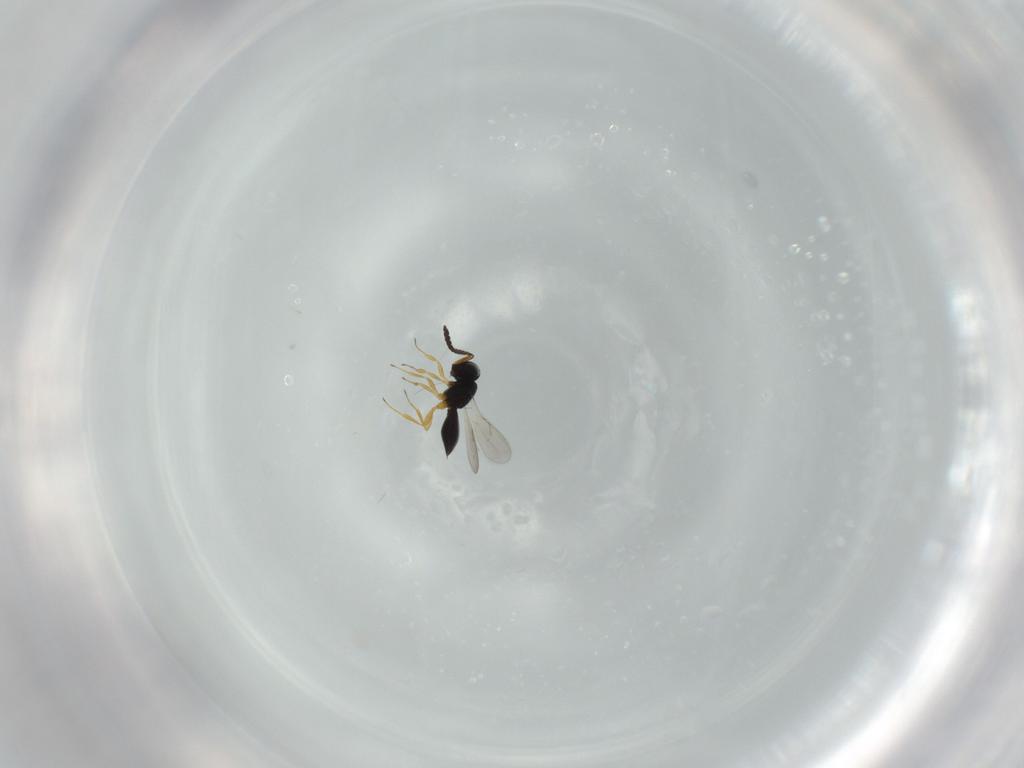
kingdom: Animalia
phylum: Arthropoda
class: Insecta
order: Hymenoptera
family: Scelionidae
